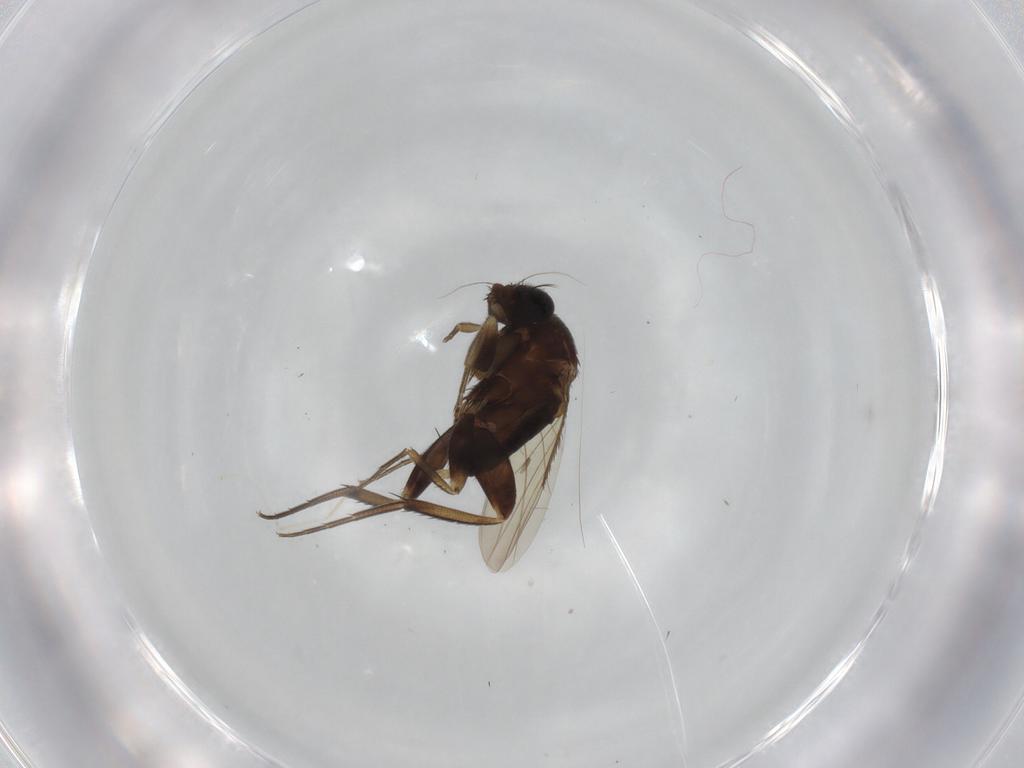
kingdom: Animalia
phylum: Arthropoda
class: Insecta
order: Diptera
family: Phoridae
